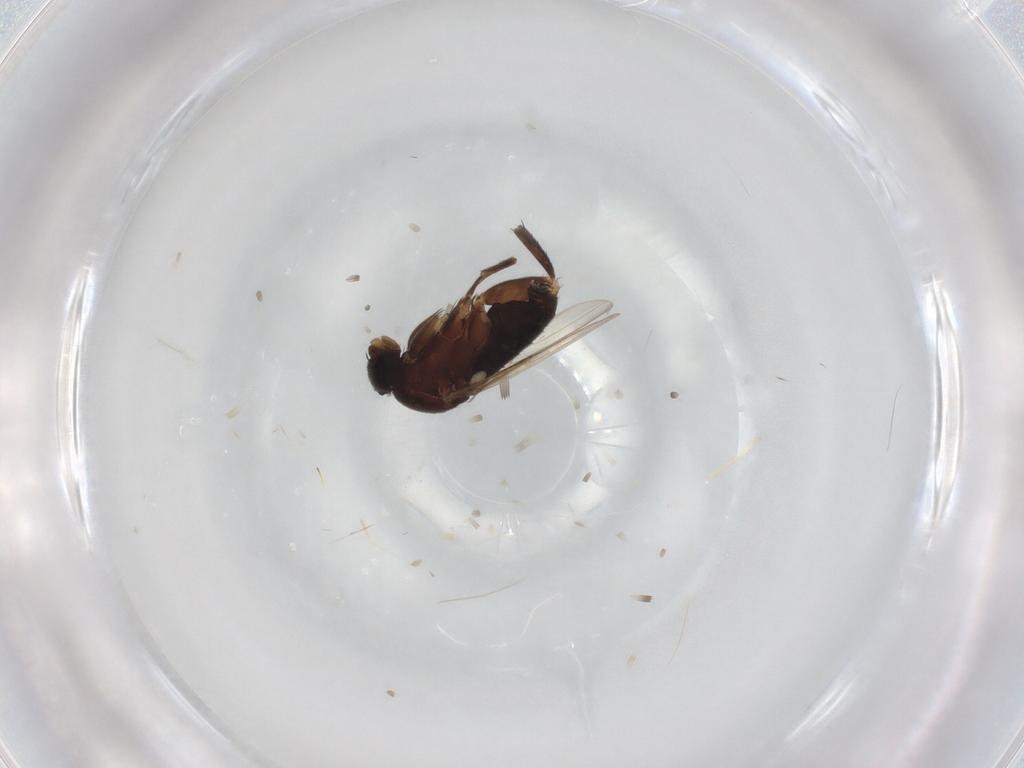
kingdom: Animalia
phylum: Arthropoda
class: Insecta
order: Diptera
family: Phoridae
